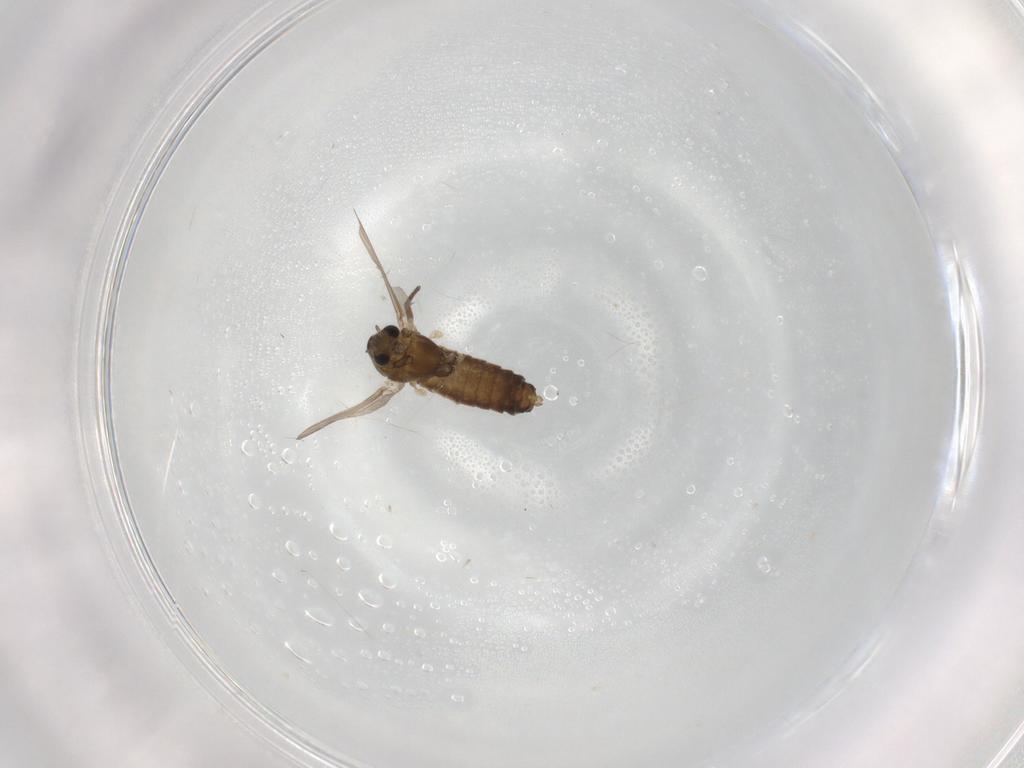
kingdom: Animalia
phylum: Arthropoda
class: Insecta
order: Diptera
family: Chironomidae
